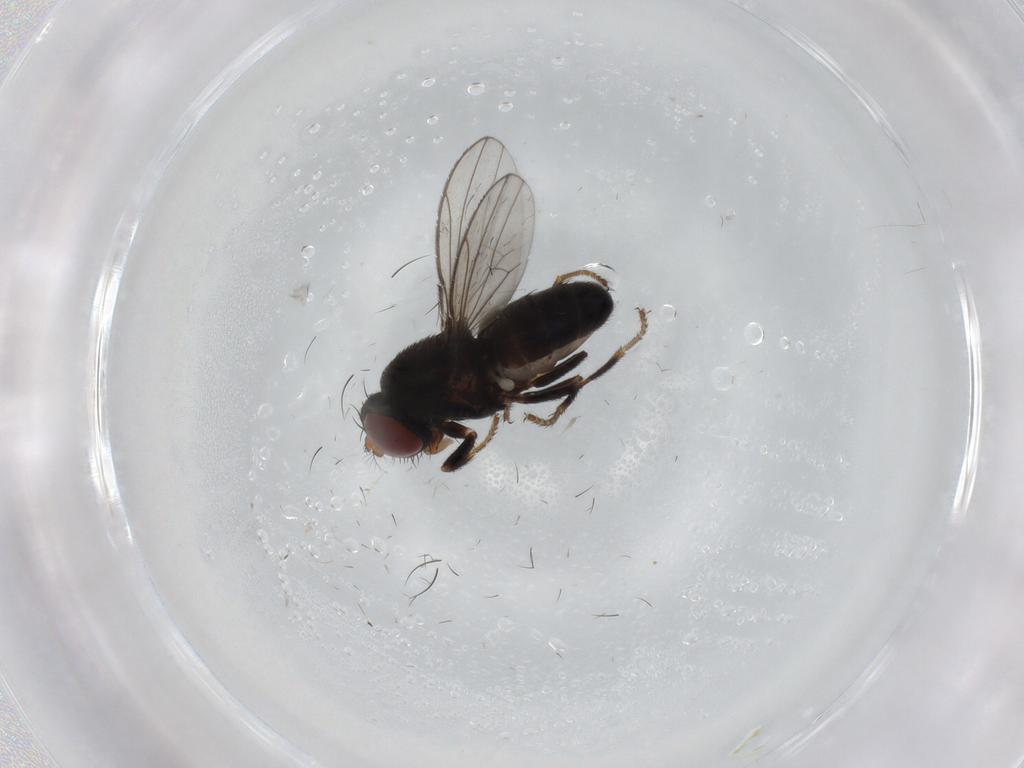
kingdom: Animalia
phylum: Arthropoda
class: Insecta
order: Diptera
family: Ephydridae
